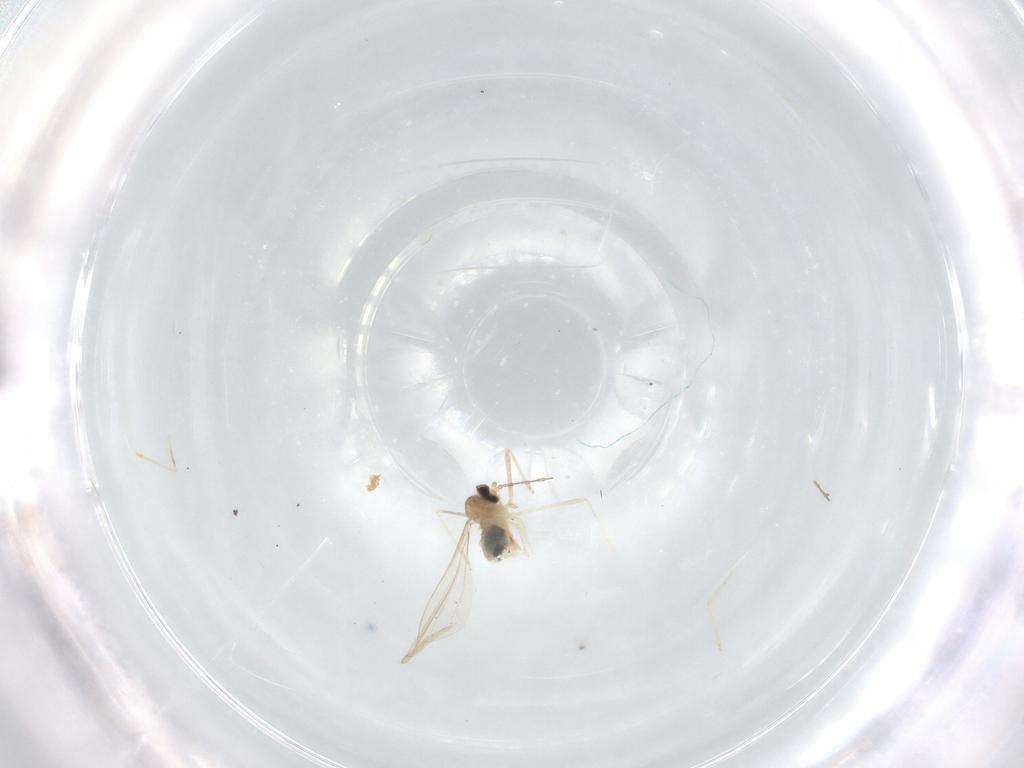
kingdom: Animalia
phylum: Arthropoda
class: Insecta
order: Diptera
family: Cecidomyiidae
